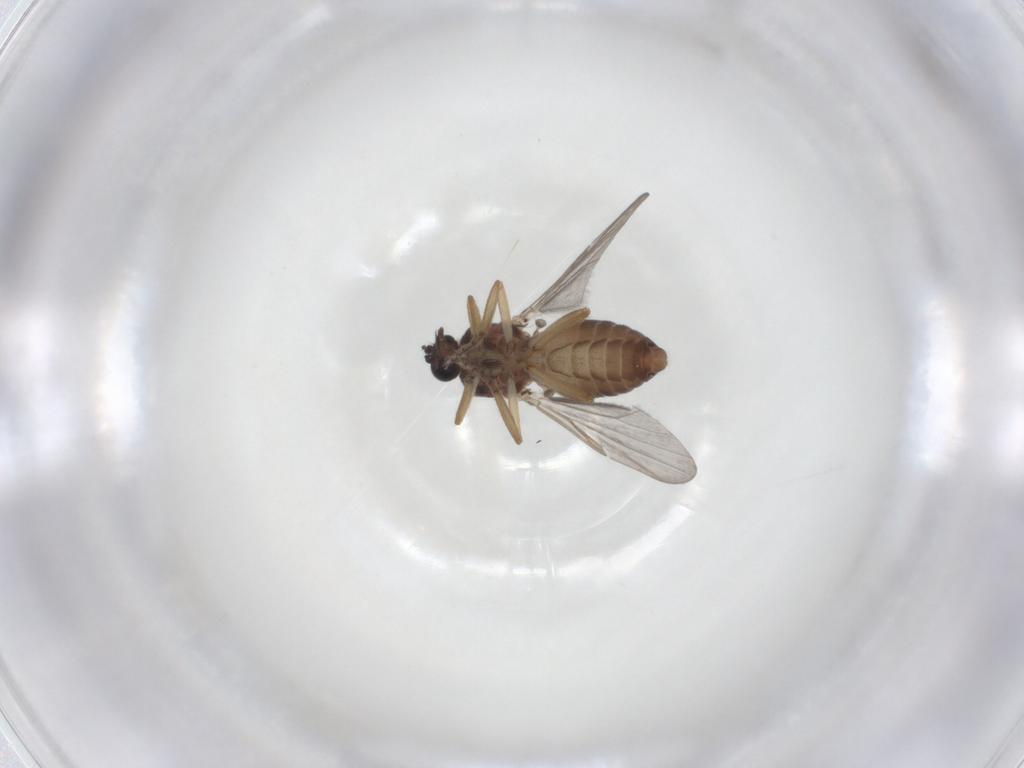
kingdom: Animalia
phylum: Arthropoda
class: Insecta
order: Diptera
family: Ceratopogonidae
